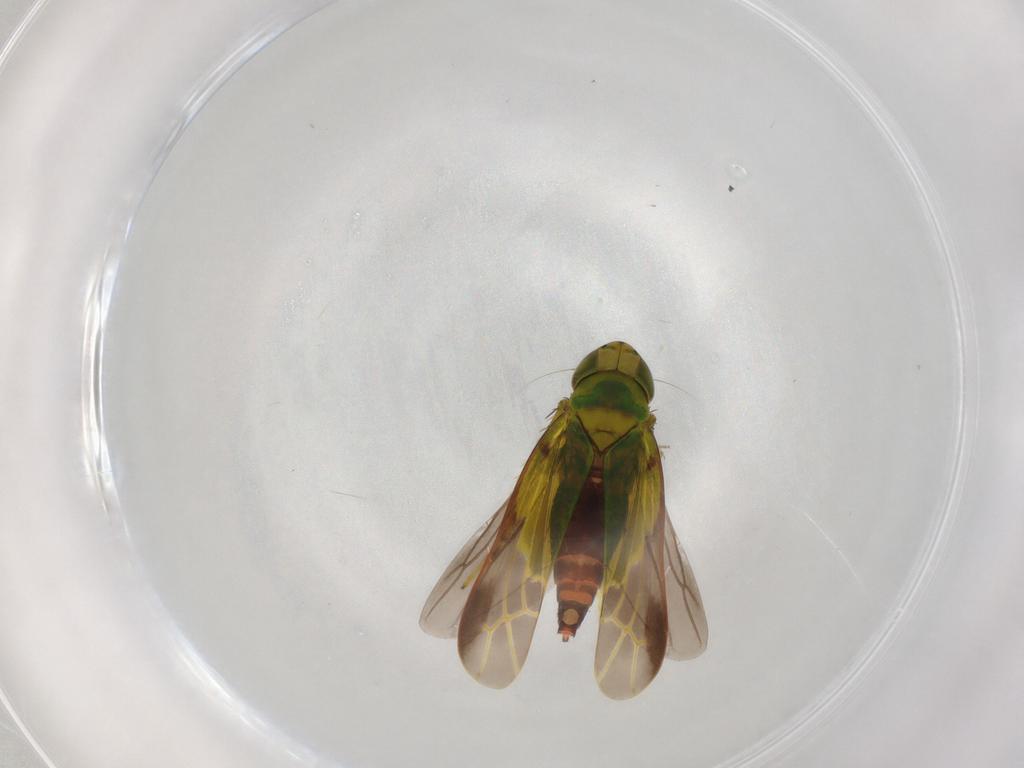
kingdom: Animalia
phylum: Arthropoda
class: Insecta
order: Hemiptera
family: Cicadellidae
